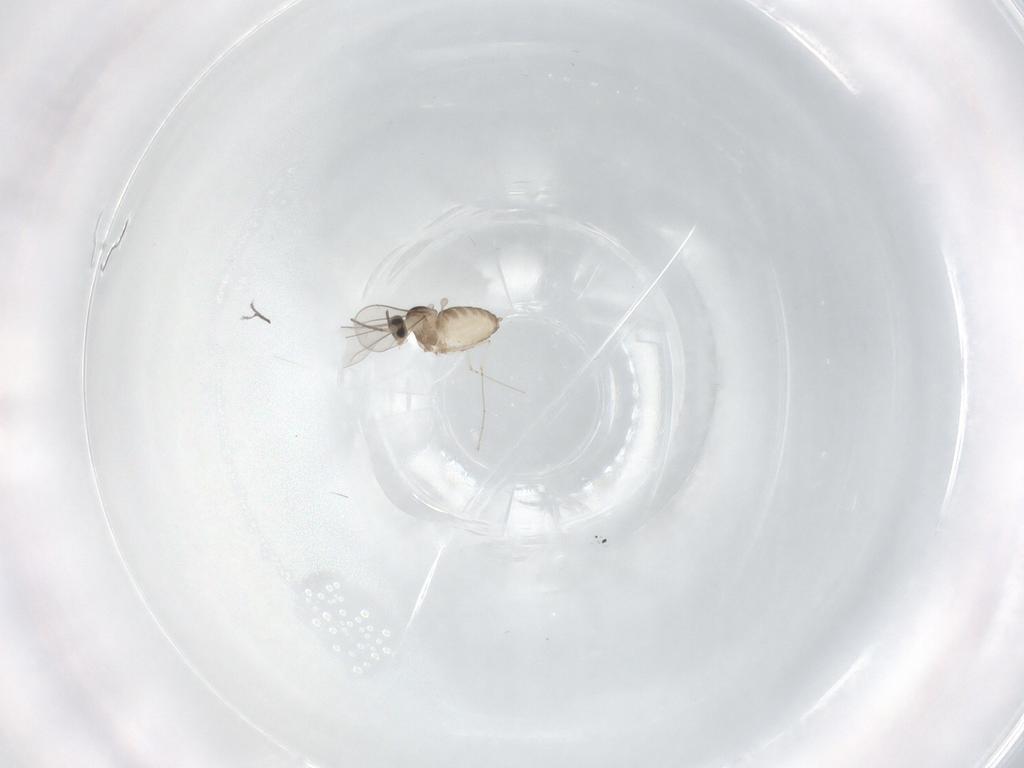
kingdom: Animalia
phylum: Arthropoda
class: Insecta
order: Diptera
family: Cecidomyiidae
